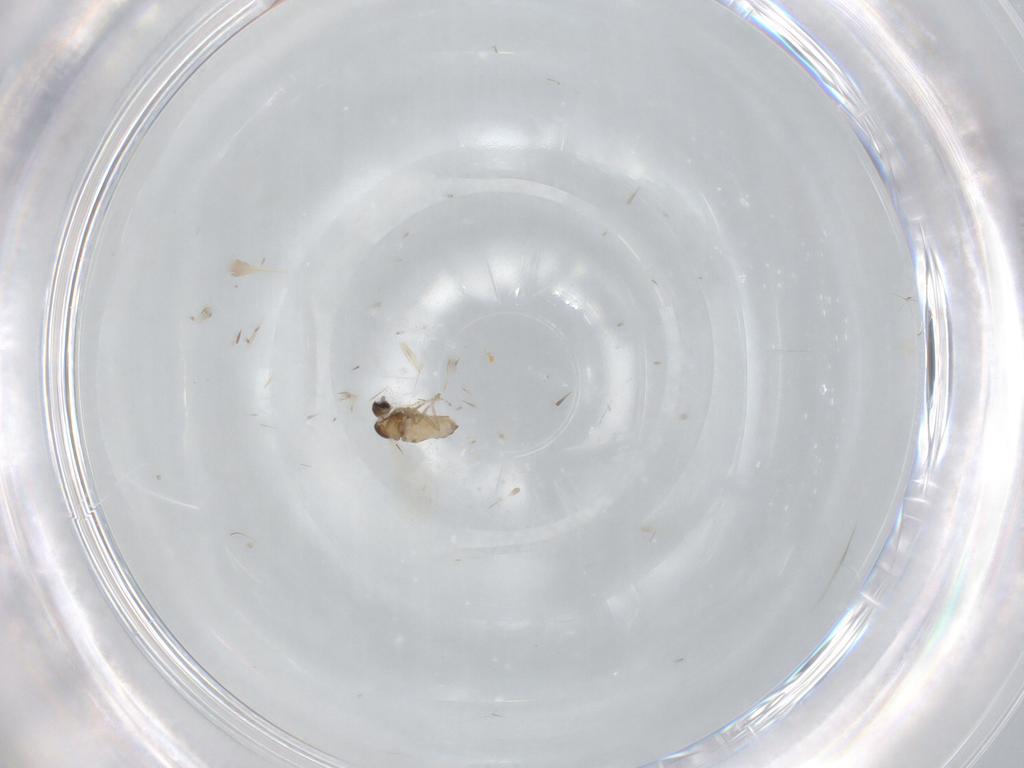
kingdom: Animalia
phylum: Arthropoda
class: Insecta
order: Diptera
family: Cecidomyiidae
